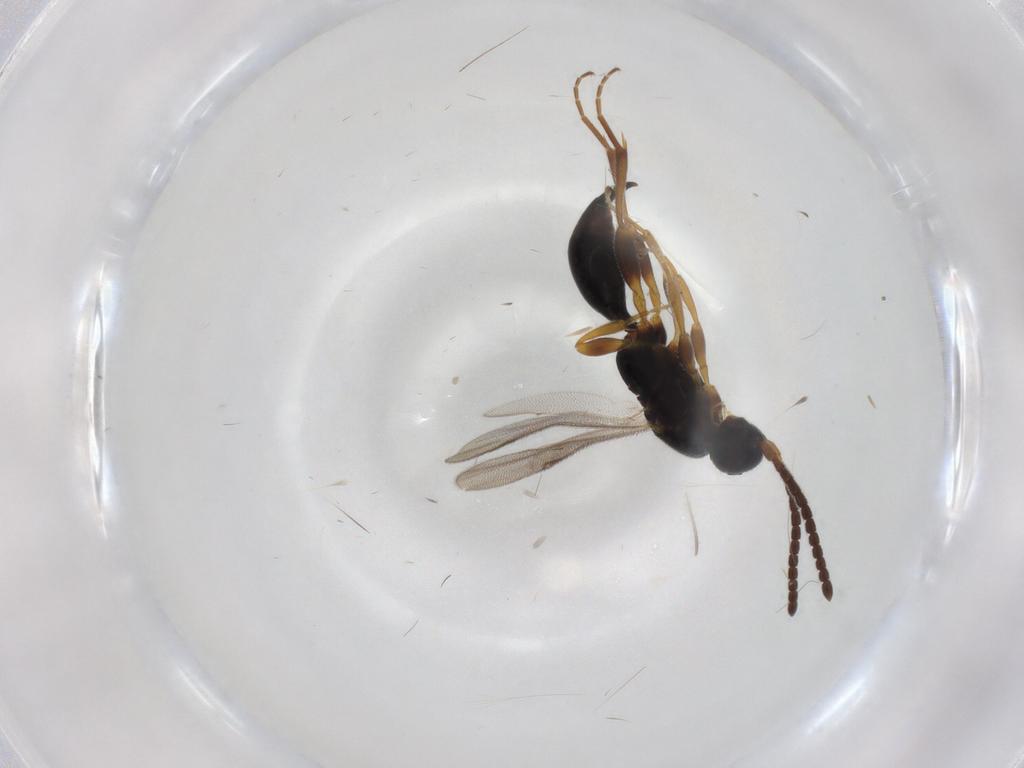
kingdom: Animalia
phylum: Arthropoda
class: Insecta
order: Hymenoptera
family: Proctotrupidae
